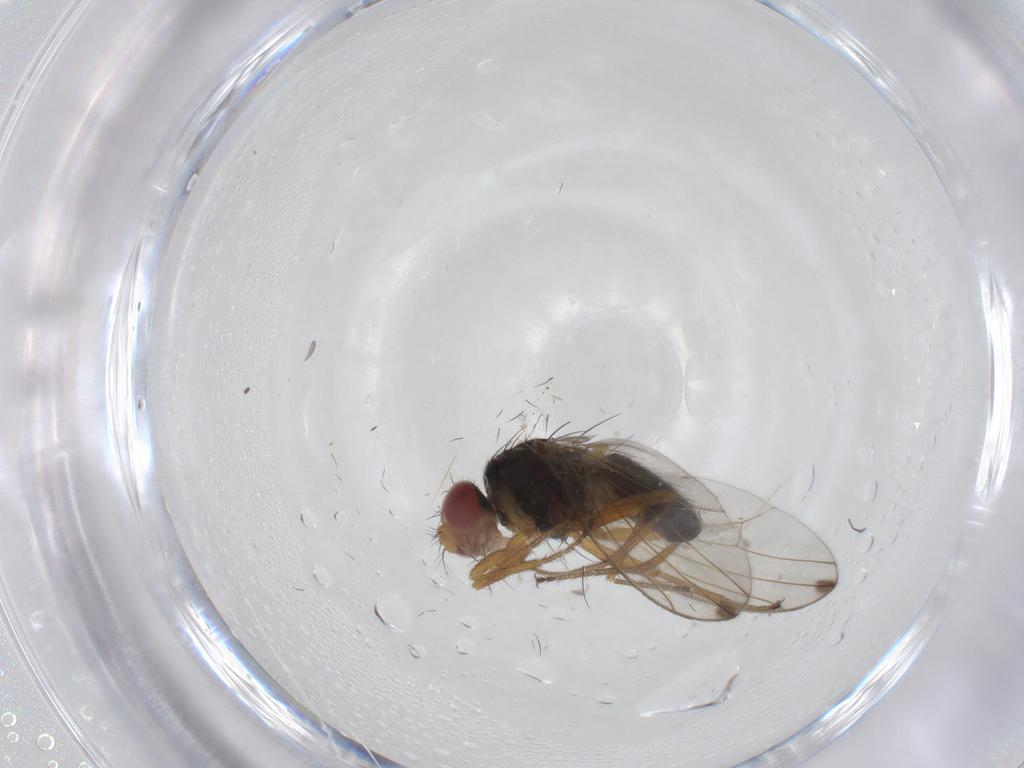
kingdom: Animalia
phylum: Arthropoda
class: Insecta
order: Diptera
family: Drosophilidae
